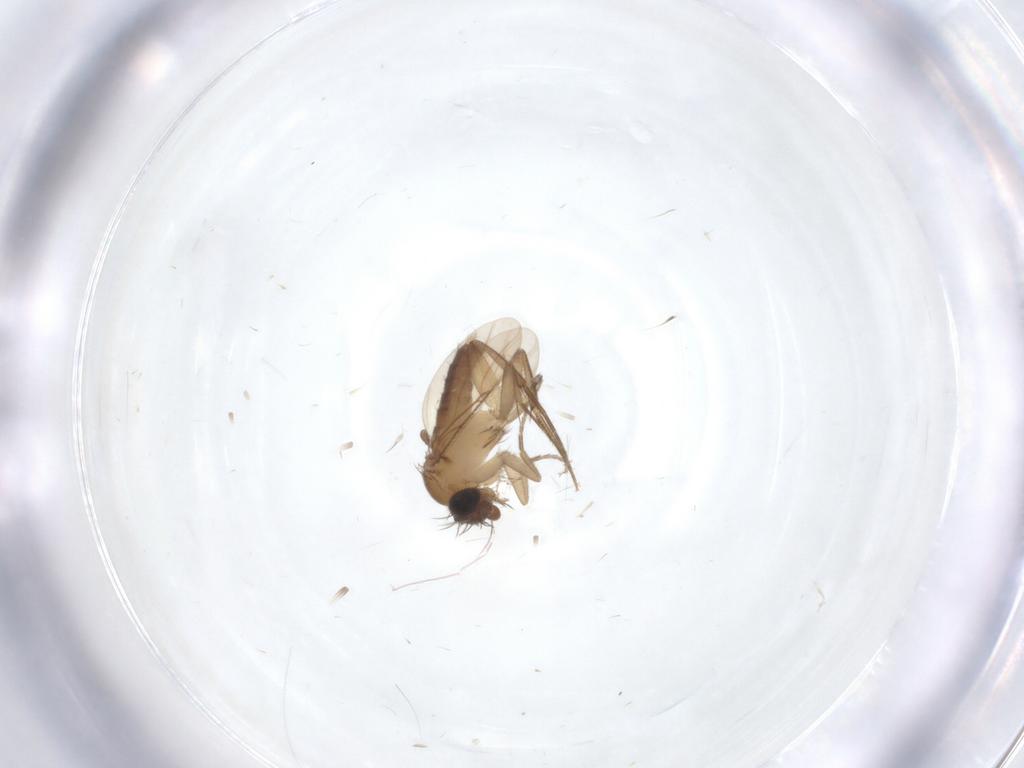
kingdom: Animalia
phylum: Arthropoda
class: Insecta
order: Diptera
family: Phoridae
